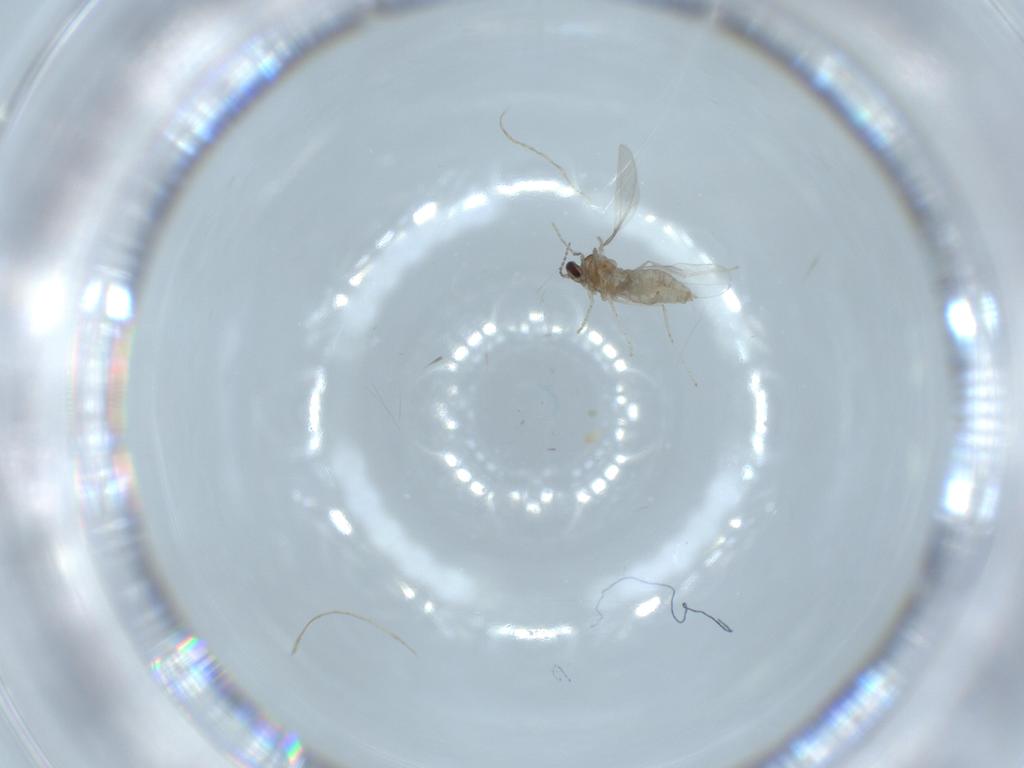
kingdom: Animalia
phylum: Arthropoda
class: Insecta
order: Diptera
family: Cecidomyiidae
